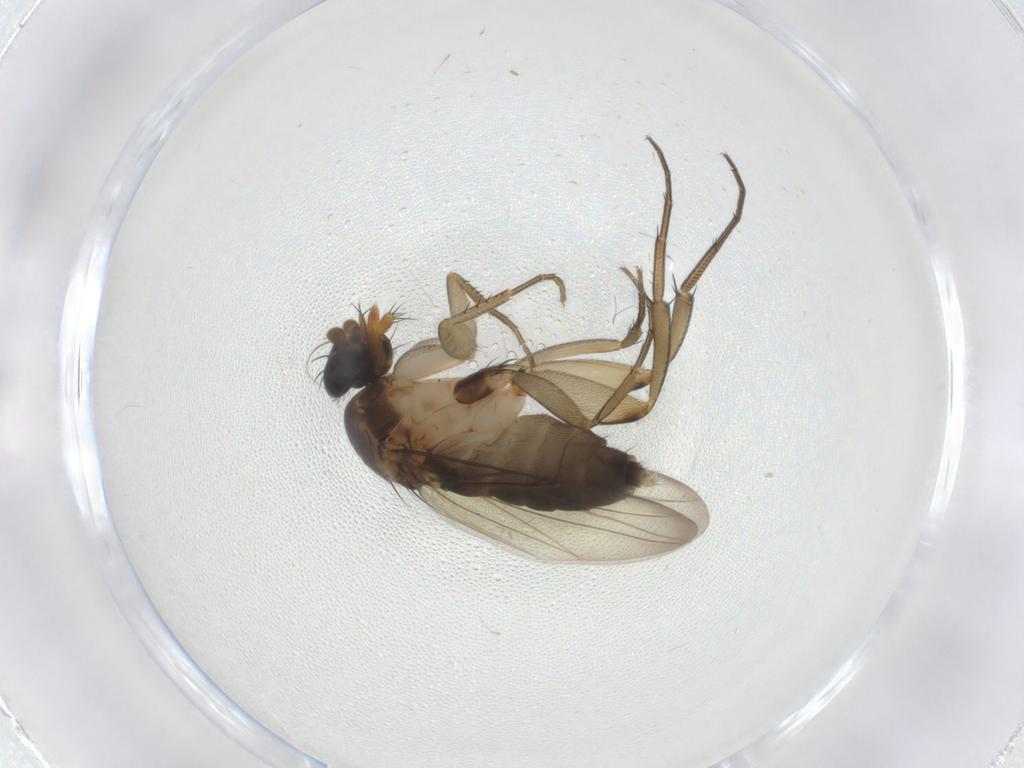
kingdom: Animalia
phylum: Arthropoda
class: Insecta
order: Diptera
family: Phoridae
